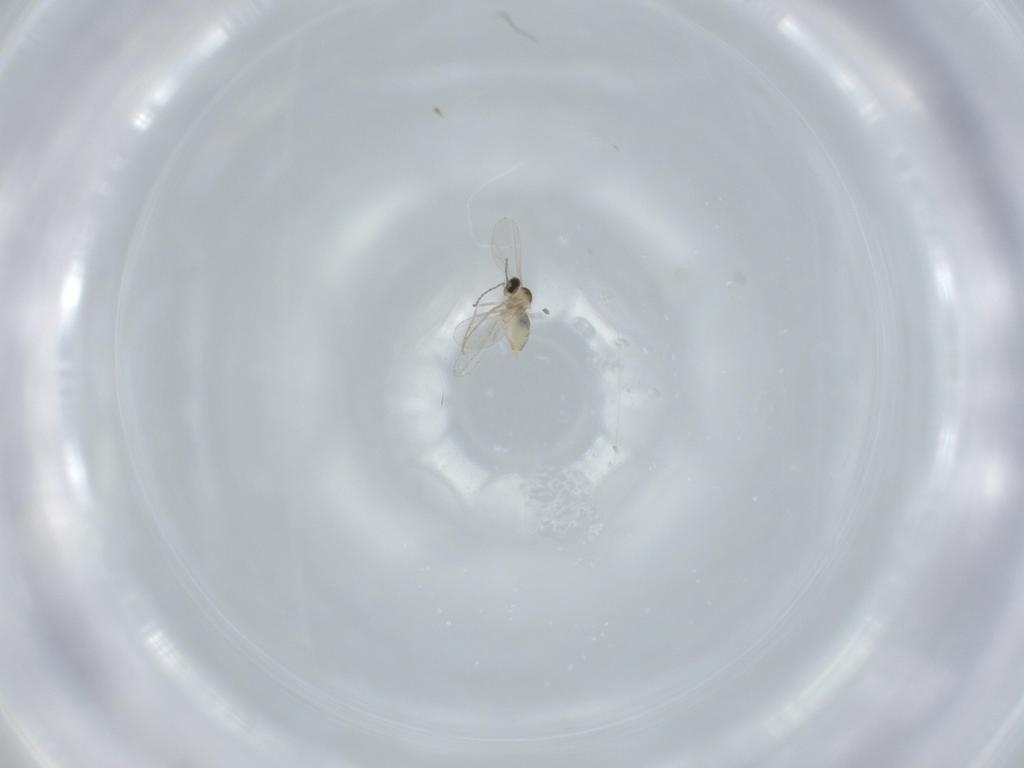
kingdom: Animalia
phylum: Arthropoda
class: Insecta
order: Diptera
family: Cecidomyiidae
